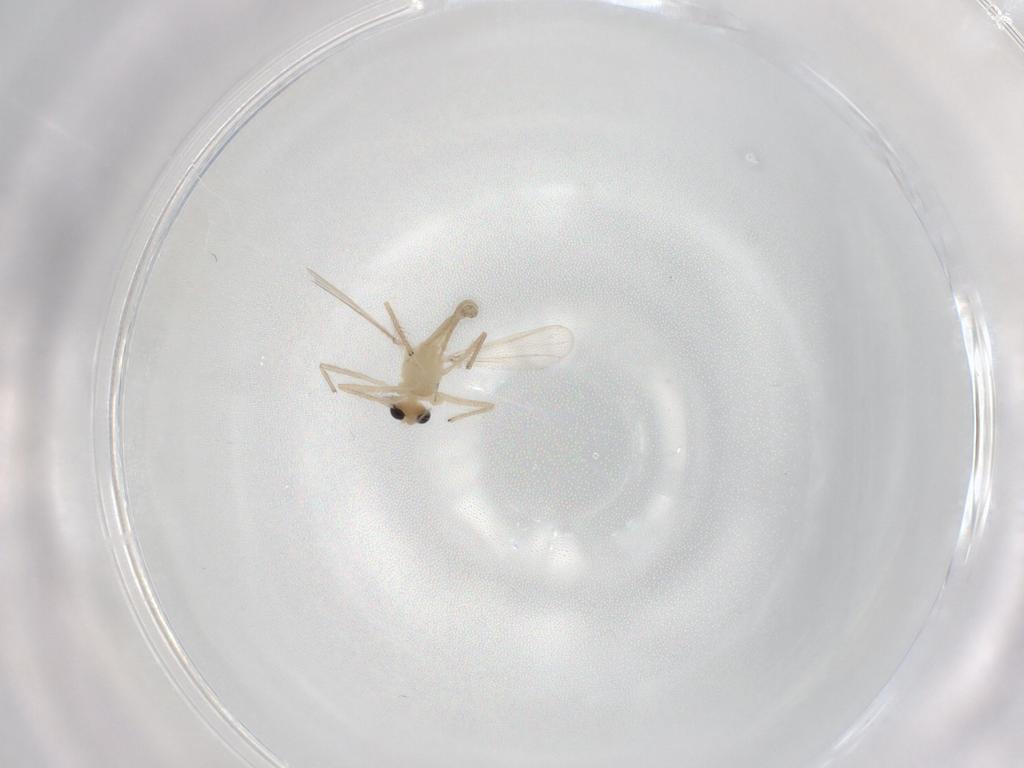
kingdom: Animalia
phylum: Arthropoda
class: Insecta
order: Diptera
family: Chironomidae
